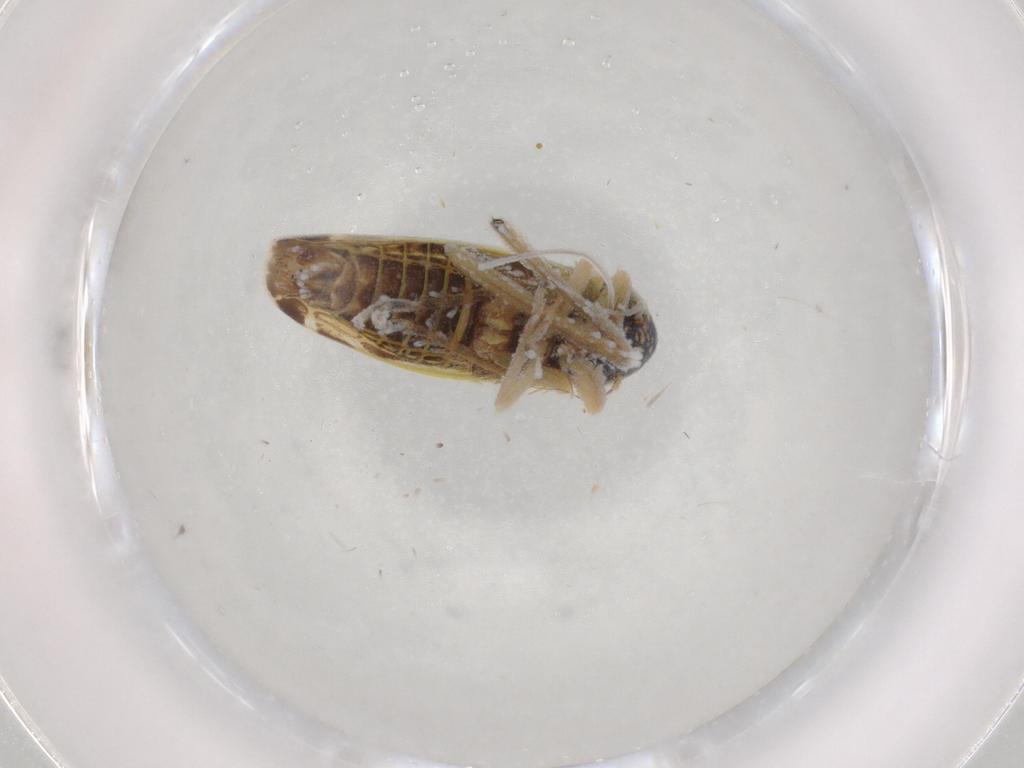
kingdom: Animalia
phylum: Arthropoda
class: Insecta
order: Hemiptera
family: Cicadellidae
